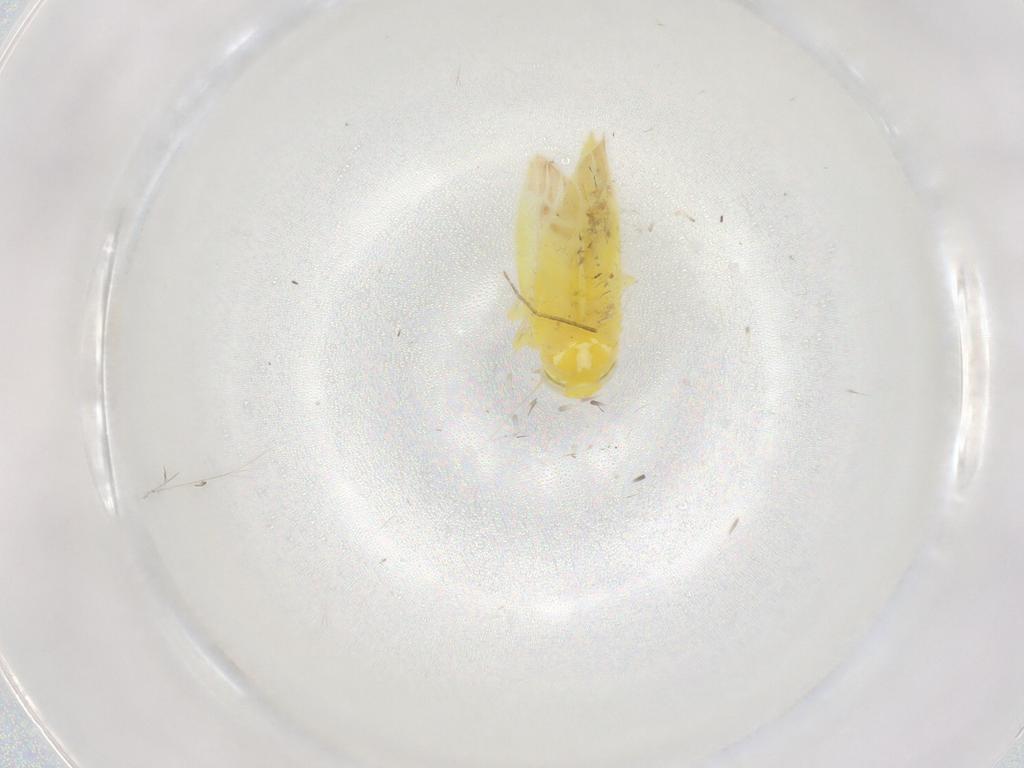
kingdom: Animalia
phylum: Arthropoda
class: Insecta
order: Hemiptera
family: Cicadellidae
